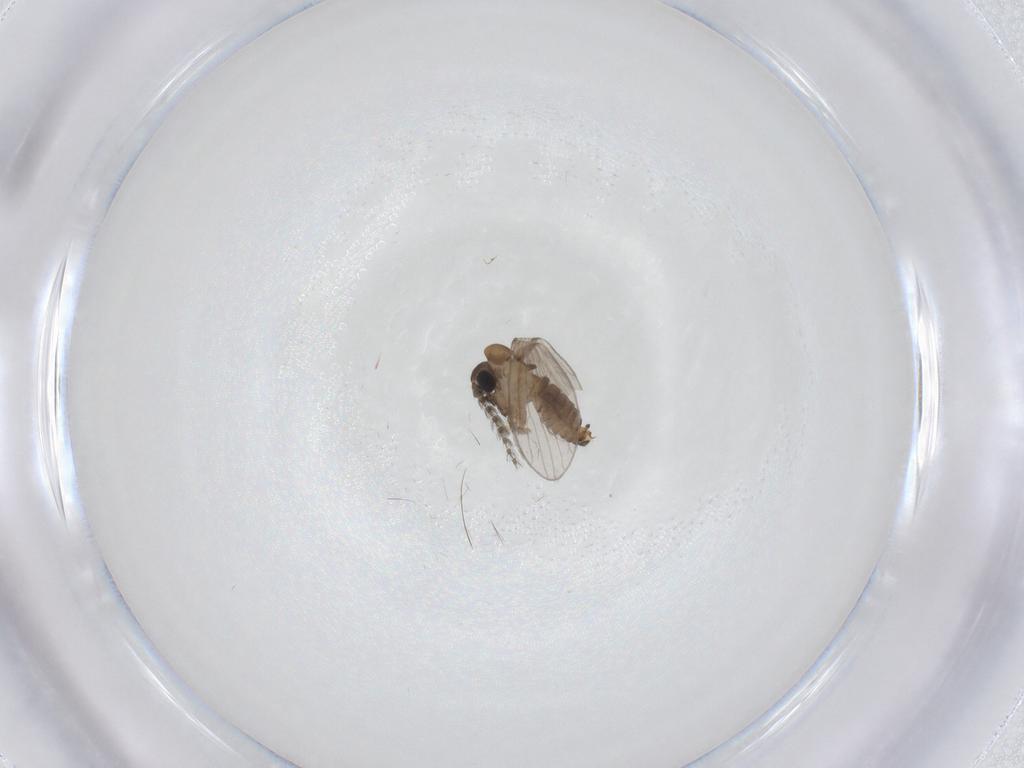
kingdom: Animalia
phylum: Arthropoda
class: Insecta
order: Diptera
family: Psychodidae
